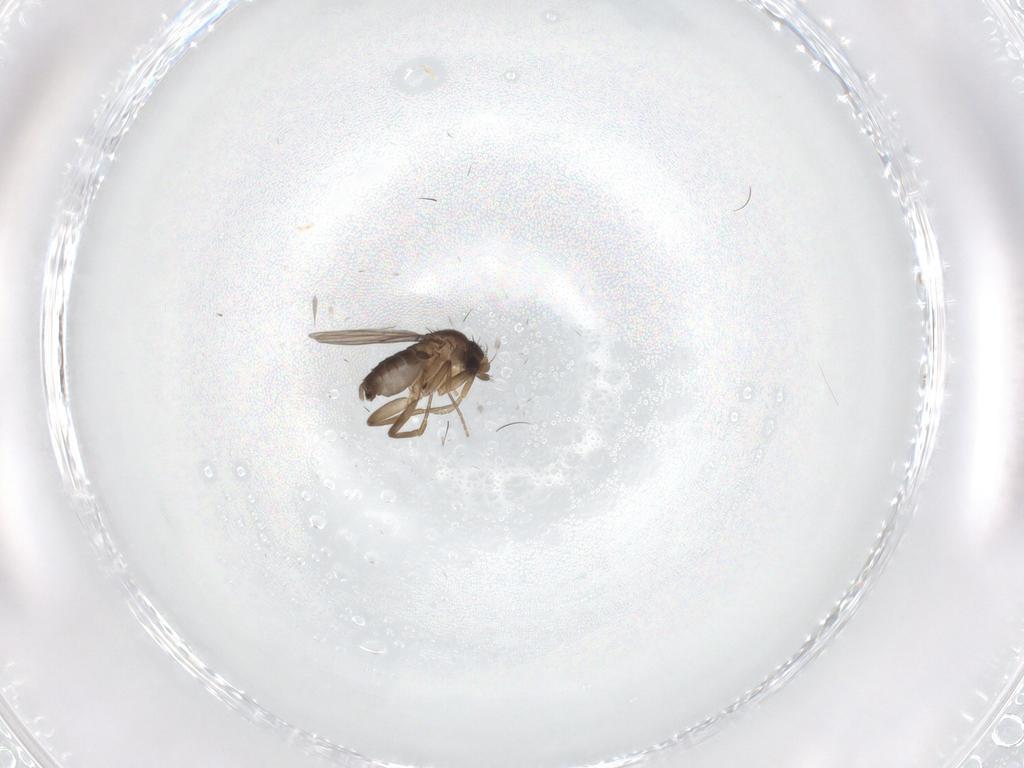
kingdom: Animalia
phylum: Arthropoda
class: Insecta
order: Diptera
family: Phoridae
